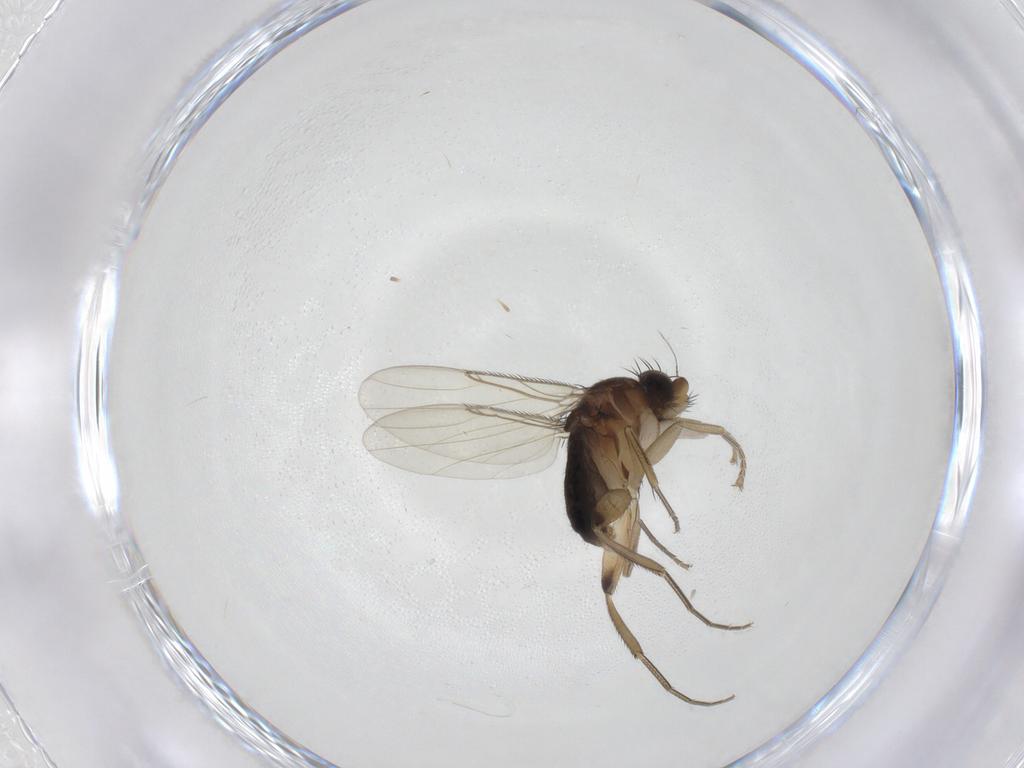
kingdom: Animalia
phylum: Arthropoda
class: Insecta
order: Diptera
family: Phoridae
